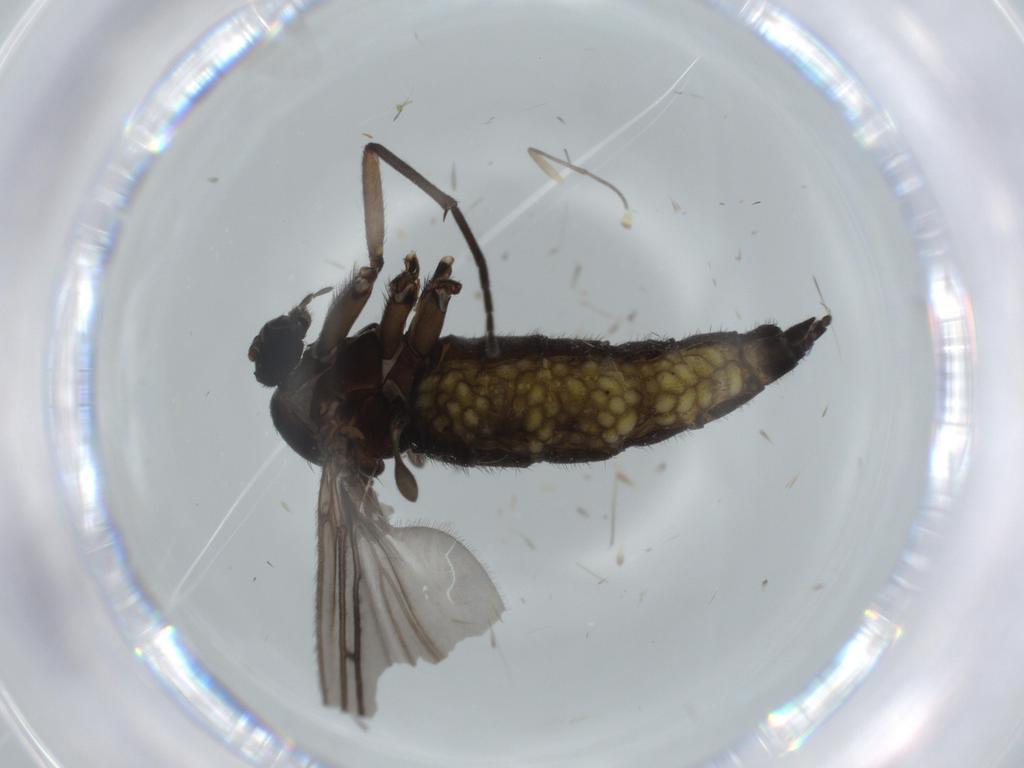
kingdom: Animalia
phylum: Arthropoda
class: Insecta
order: Diptera
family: Sciaridae
